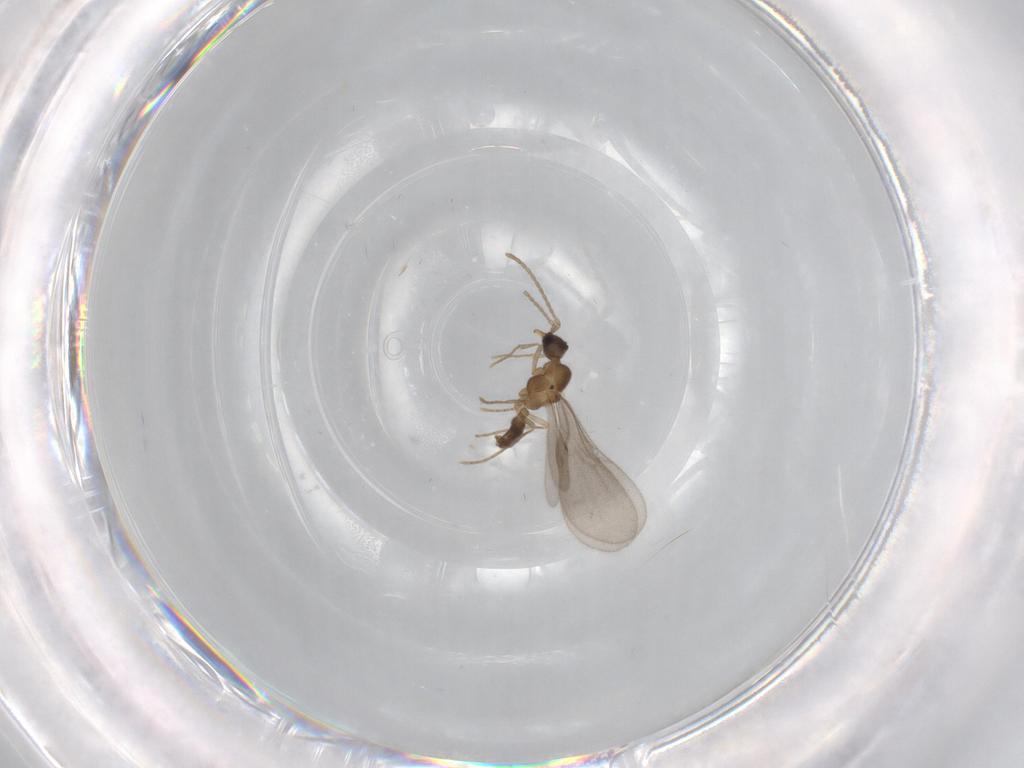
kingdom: Animalia
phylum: Arthropoda
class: Insecta
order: Hymenoptera
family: Formicidae
